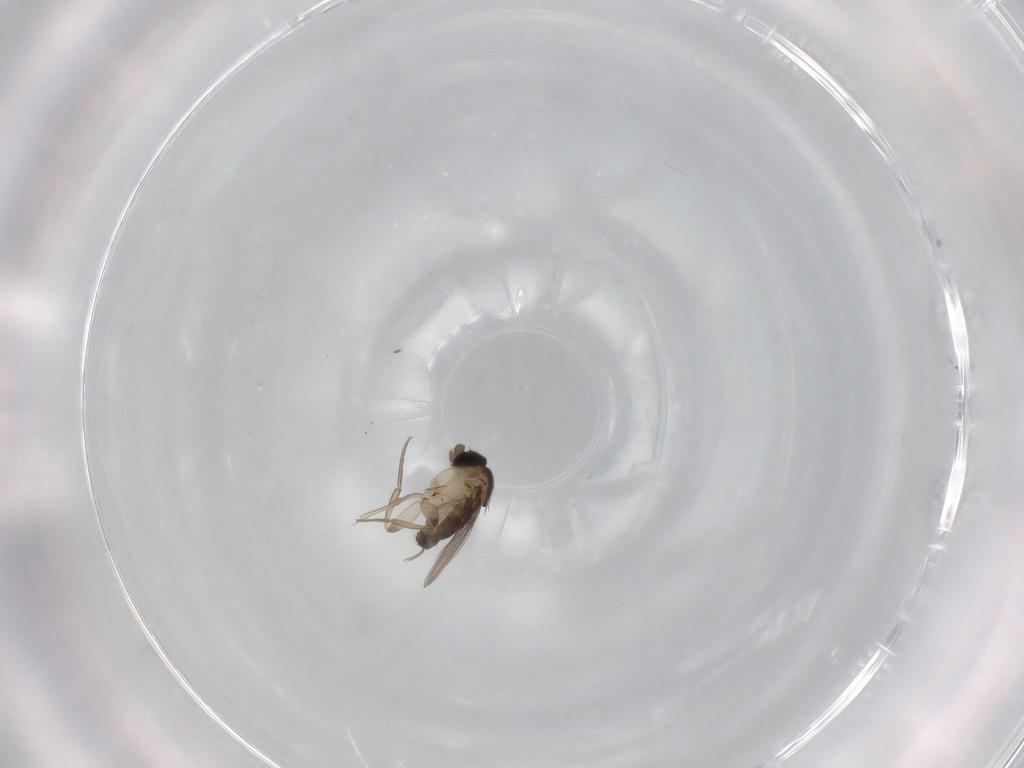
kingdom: Animalia
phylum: Arthropoda
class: Insecta
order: Diptera
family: Phoridae
